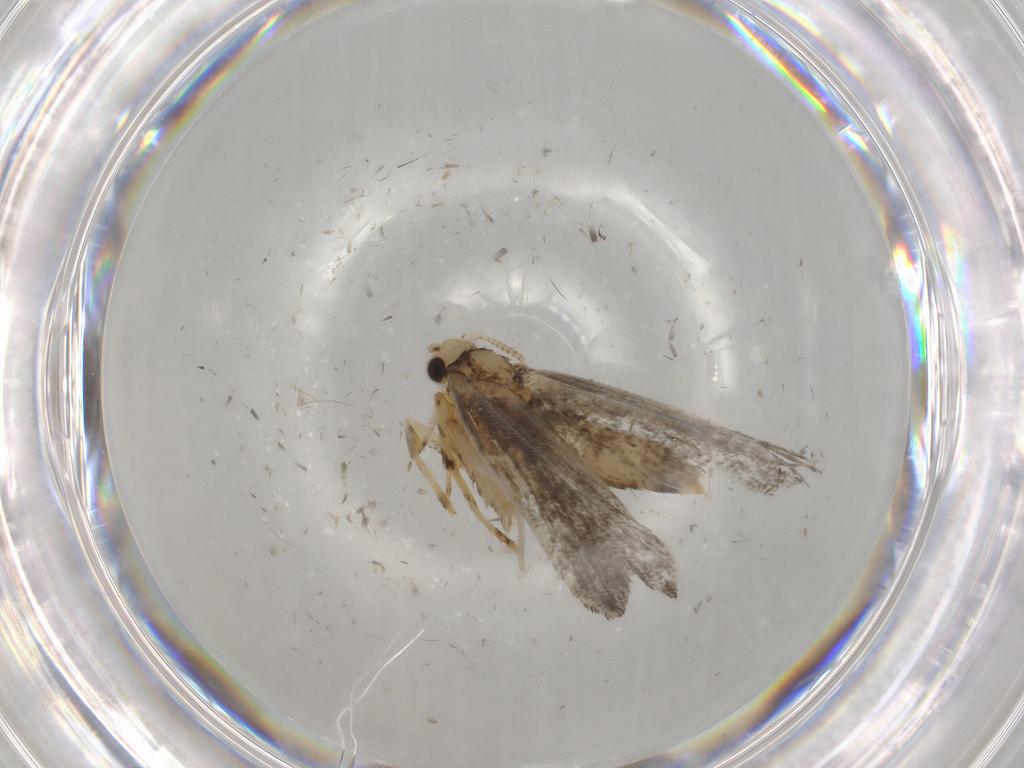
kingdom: Animalia
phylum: Arthropoda
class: Insecta
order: Lepidoptera
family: Tineidae
